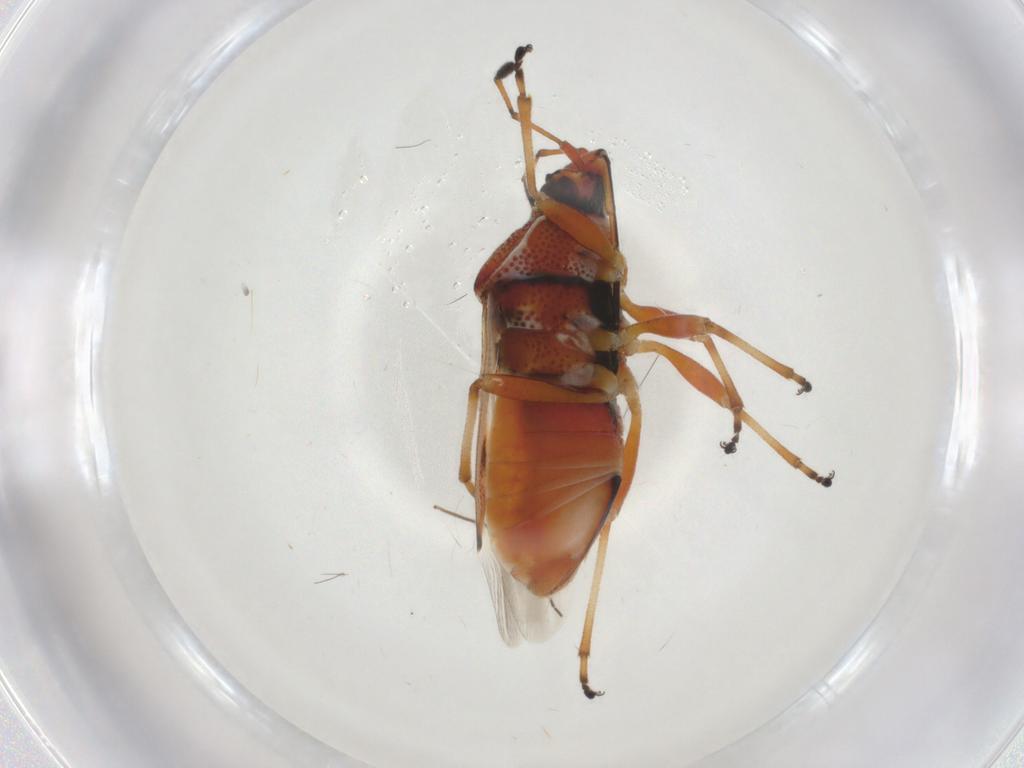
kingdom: Animalia
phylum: Arthropoda
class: Insecta
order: Hemiptera
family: Lygaeidae
